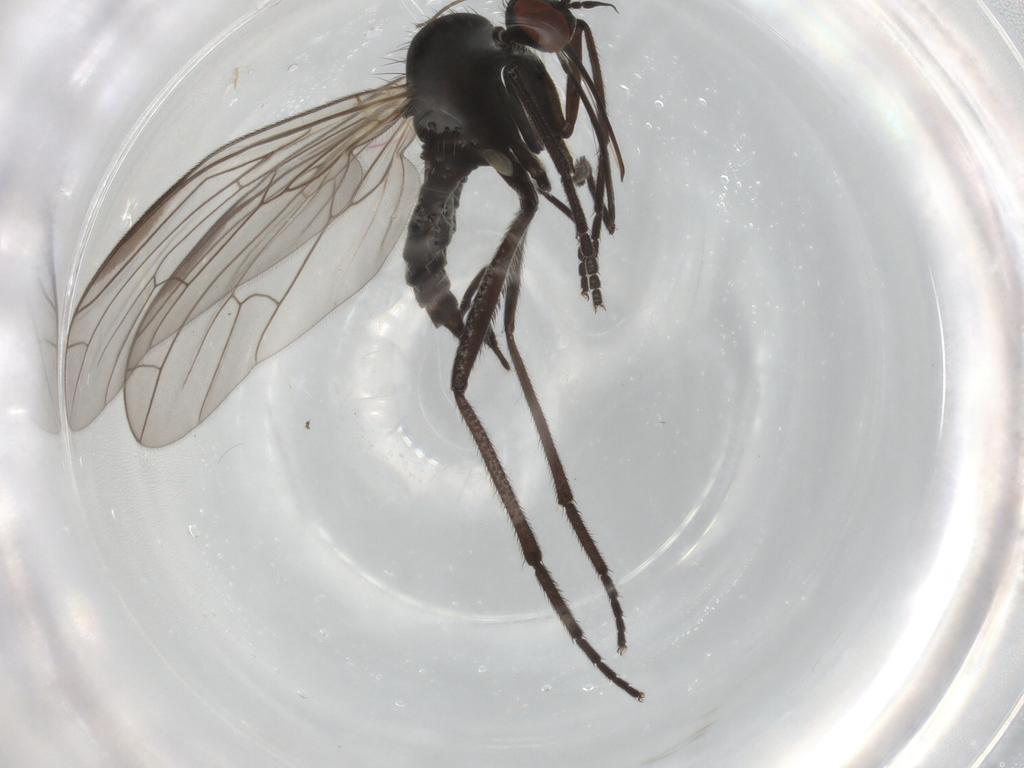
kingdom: Animalia
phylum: Arthropoda
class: Insecta
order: Diptera
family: Empididae
